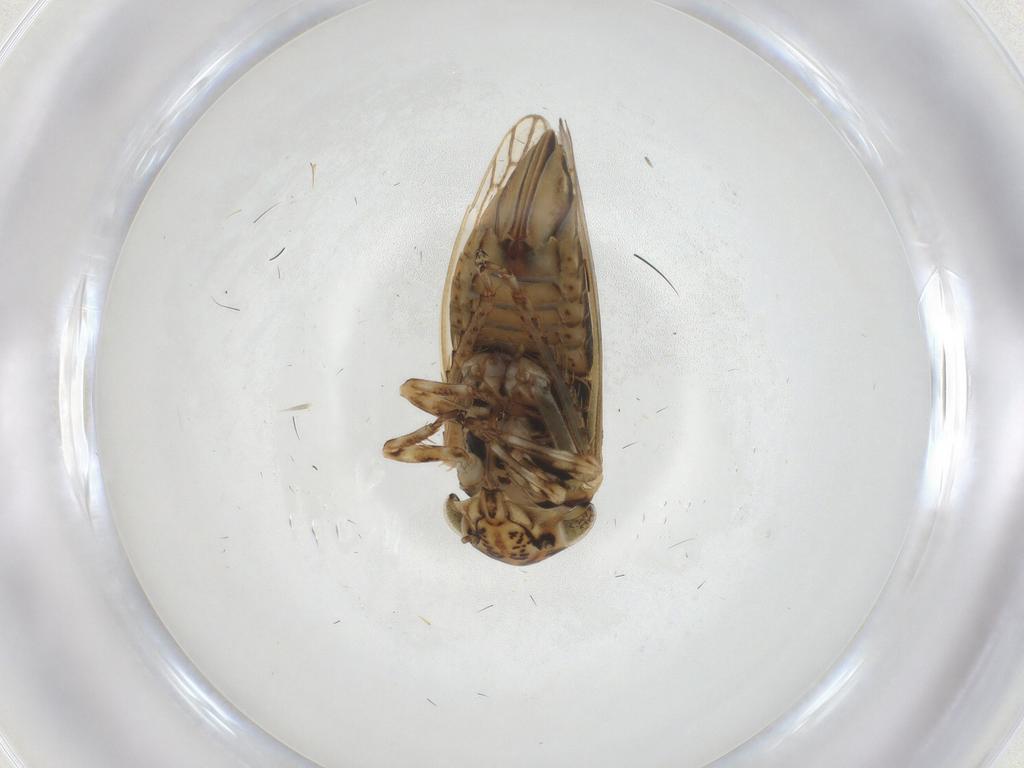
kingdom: Animalia
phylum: Arthropoda
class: Insecta
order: Hemiptera
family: Cicadellidae
